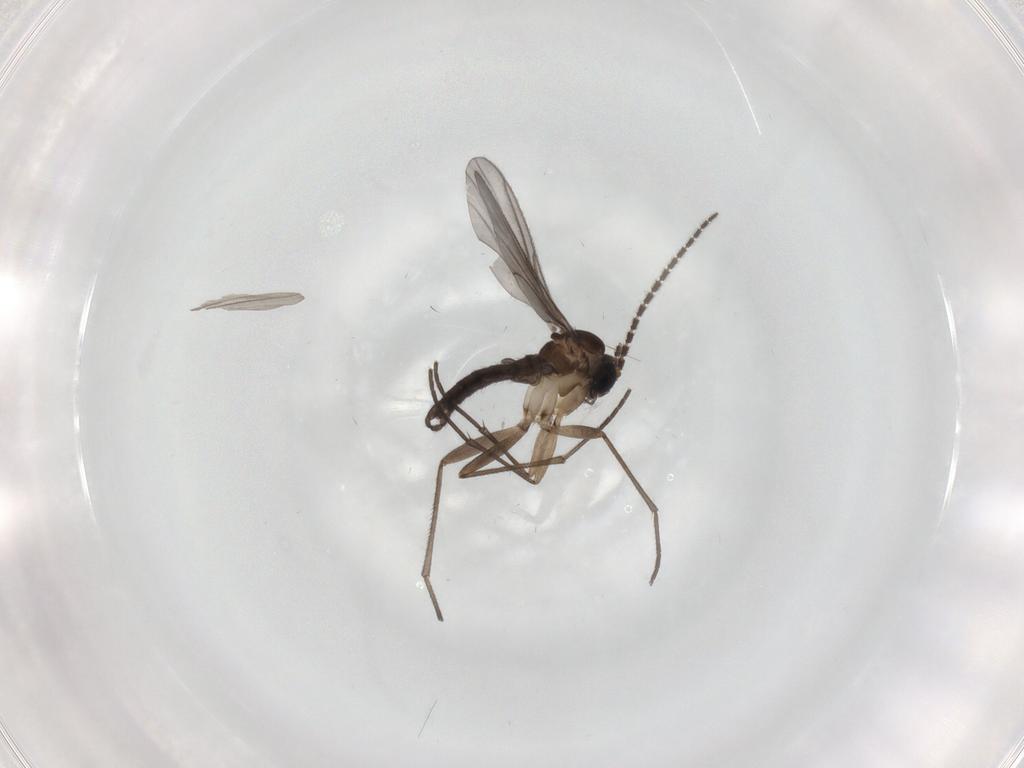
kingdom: Animalia
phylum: Arthropoda
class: Insecta
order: Diptera
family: Sciaridae
